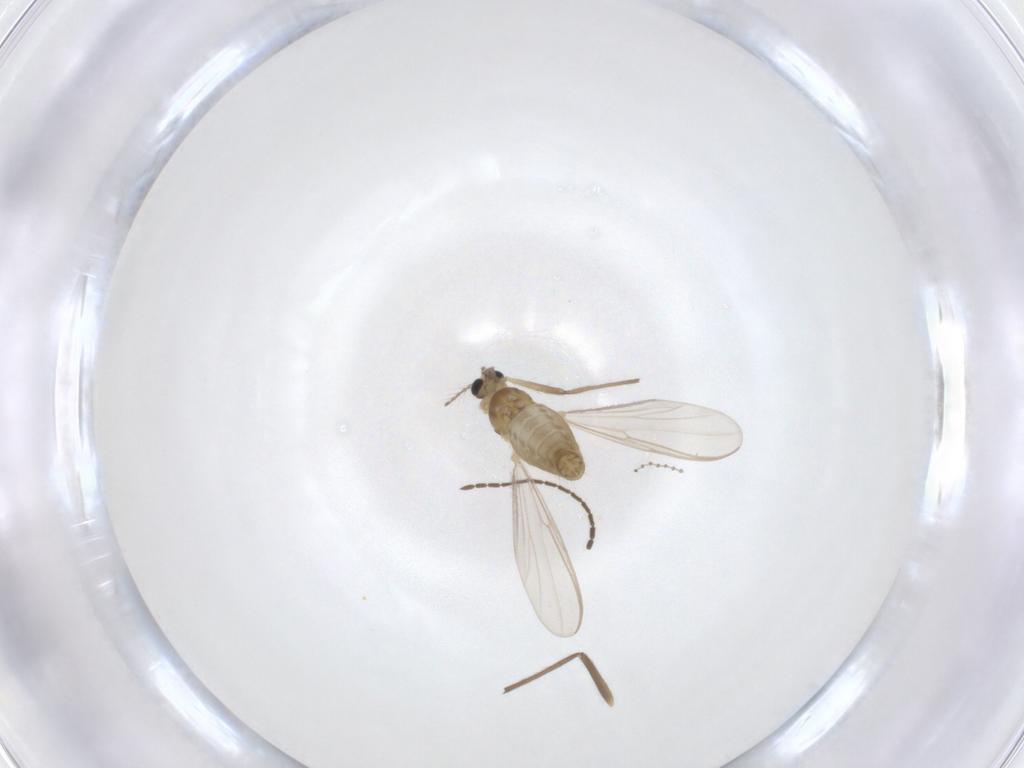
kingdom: Animalia
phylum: Arthropoda
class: Insecta
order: Diptera
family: Chironomidae
